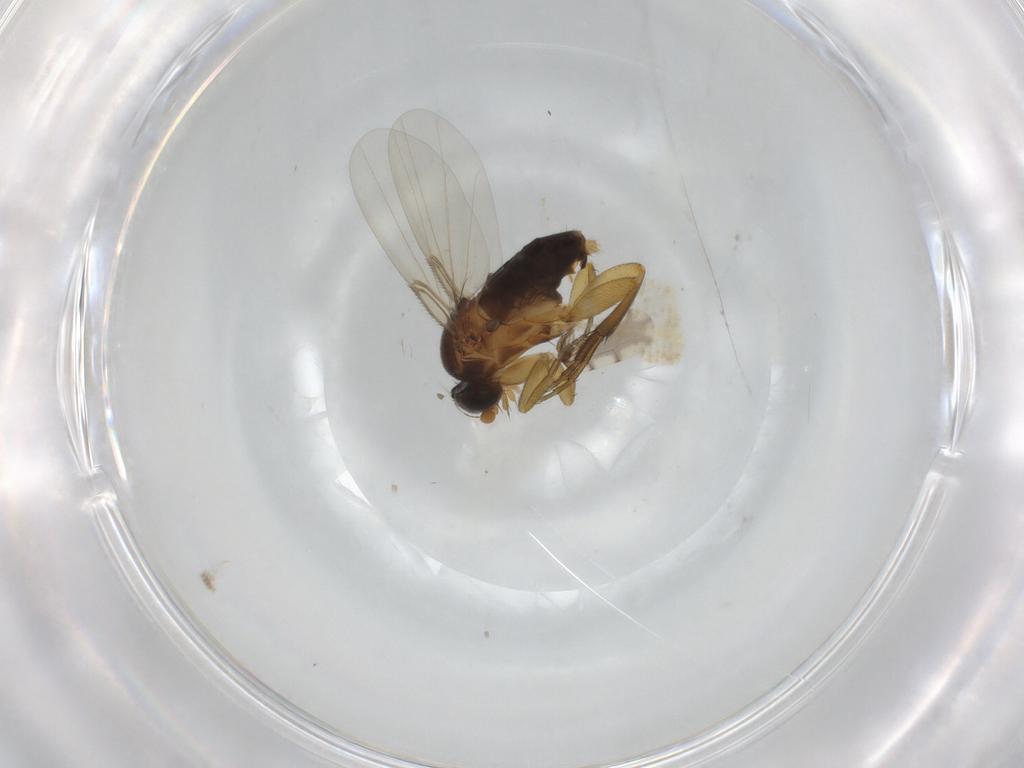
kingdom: Animalia
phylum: Arthropoda
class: Insecta
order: Diptera
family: Phoridae
